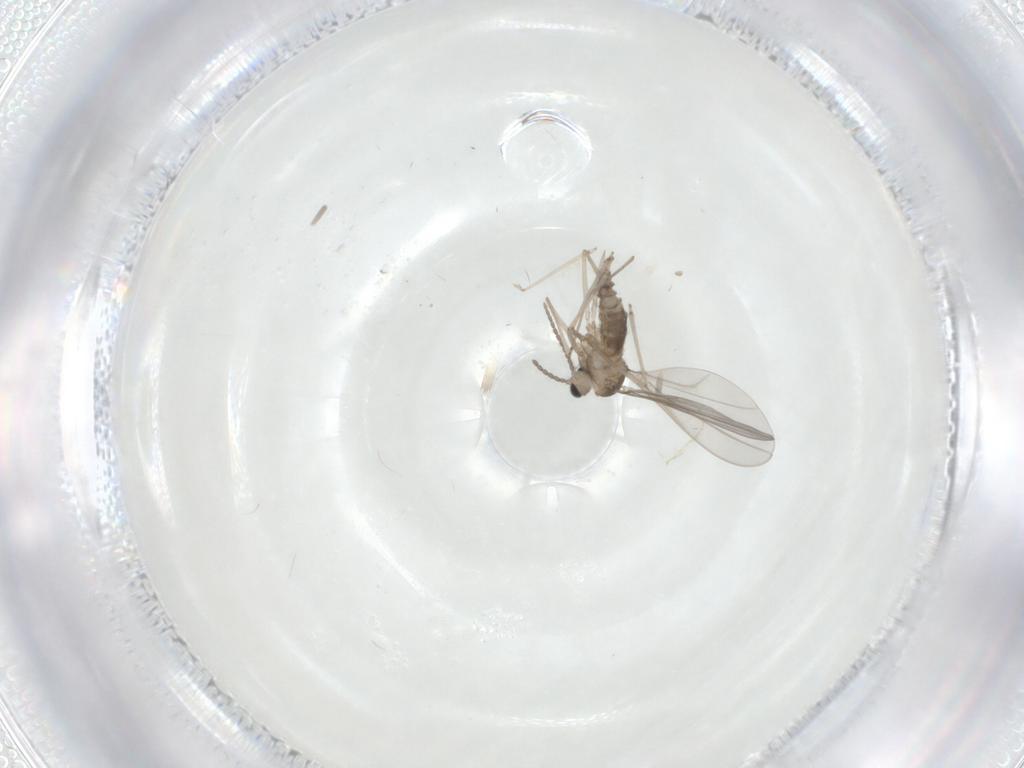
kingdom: Animalia
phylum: Arthropoda
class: Insecta
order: Diptera
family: Cecidomyiidae
